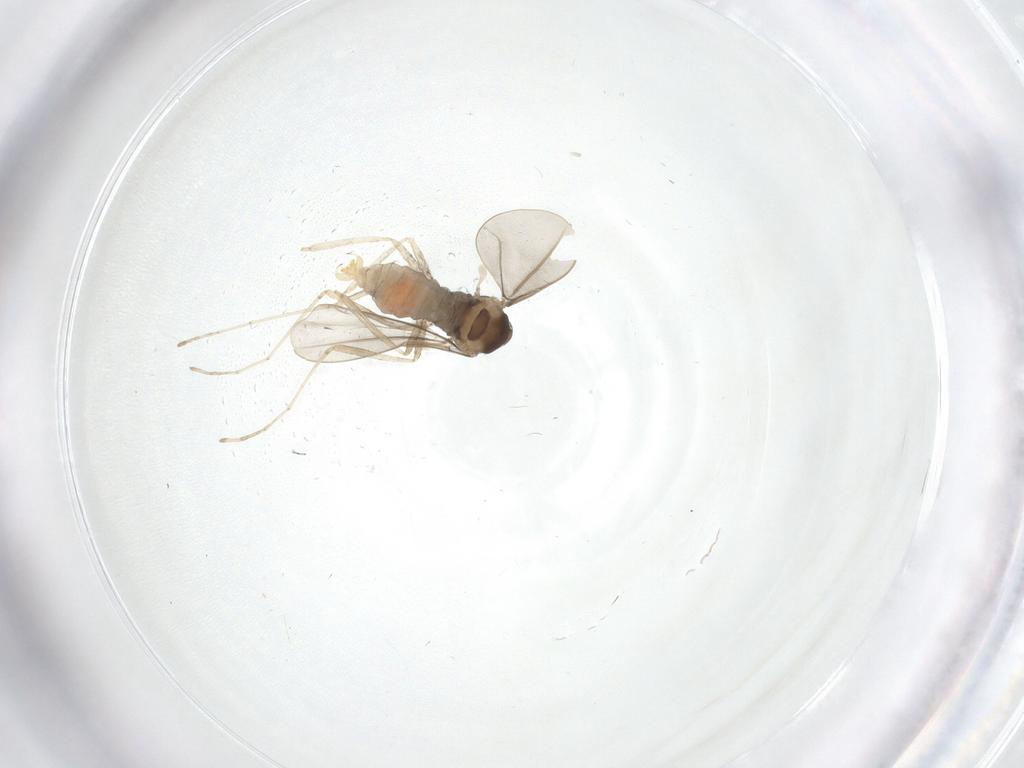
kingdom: Animalia
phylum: Arthropoda
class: Insecta
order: Diptera
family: Cecidomyiidae
